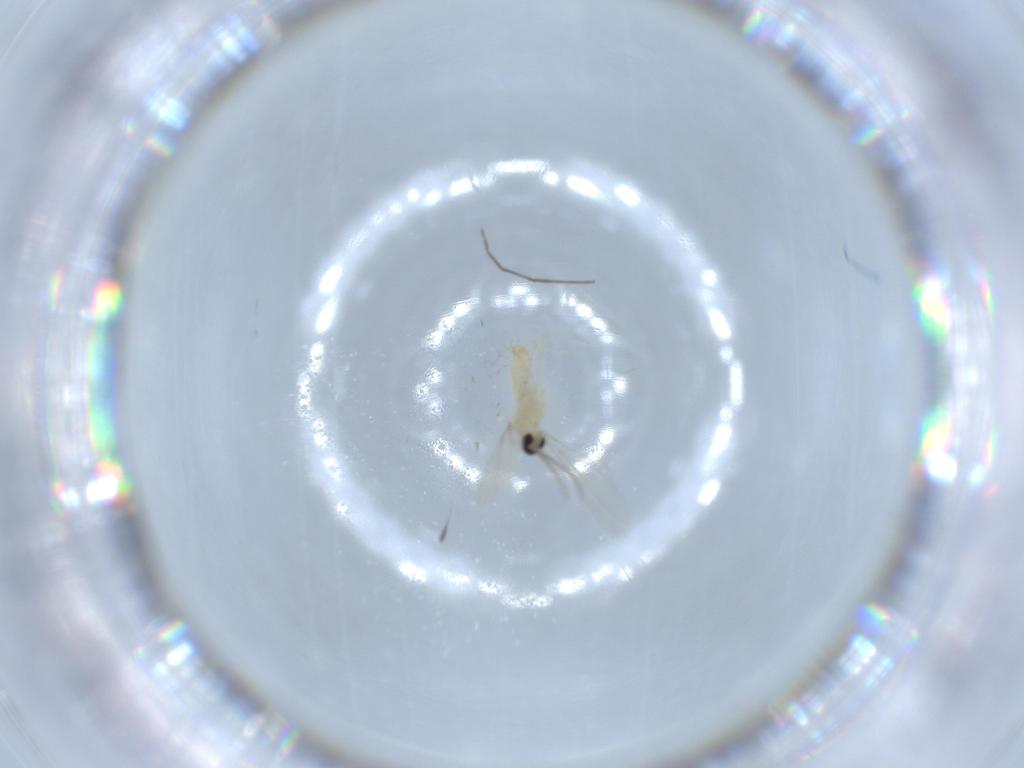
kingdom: Animalia
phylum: Arthropoda
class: Insecta
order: Diptera
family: Cecidomyiidae
